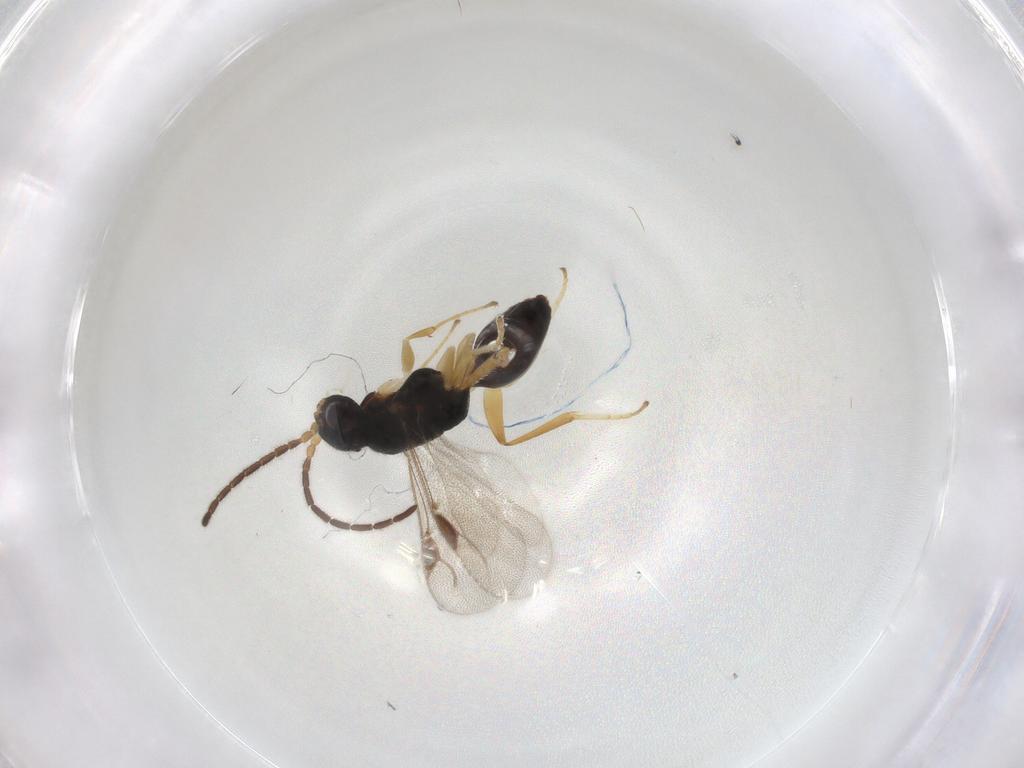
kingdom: Animalia
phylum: Arthropoda
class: Insecta
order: Hymenoptera
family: Dryinidae
